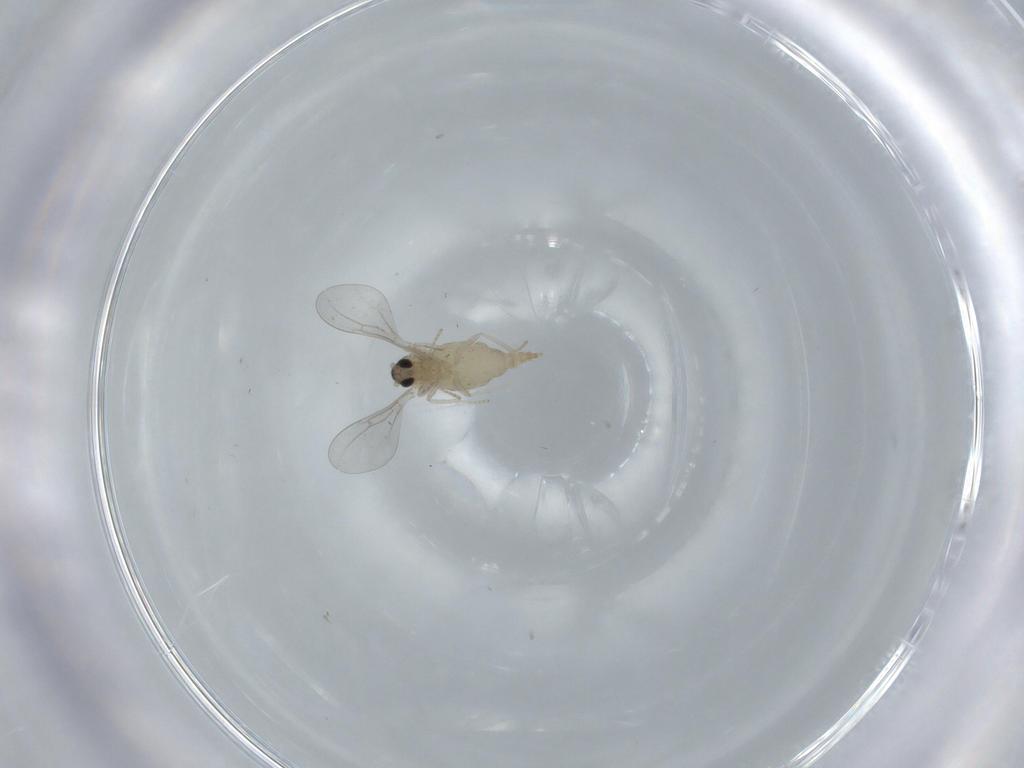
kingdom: Animalia
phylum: Arthropoda
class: Insecta
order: Diptera
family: Cecidomyiidae
